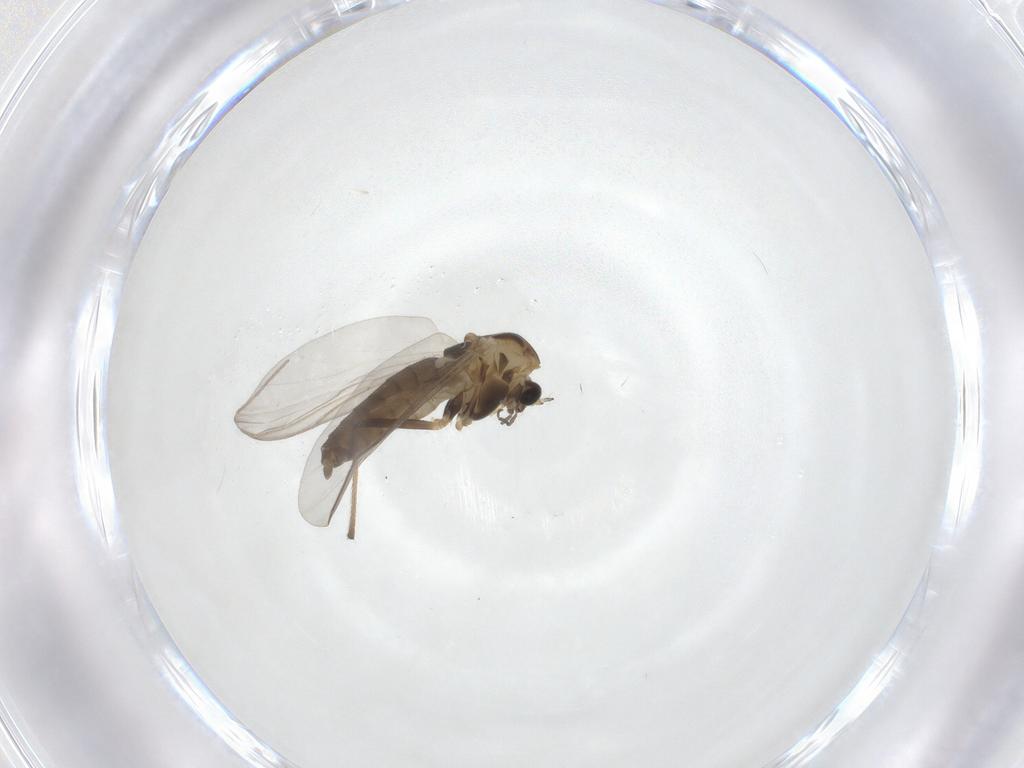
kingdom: Animalia
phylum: Arthropoda
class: Insecta
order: Diptera
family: Chironomidae
